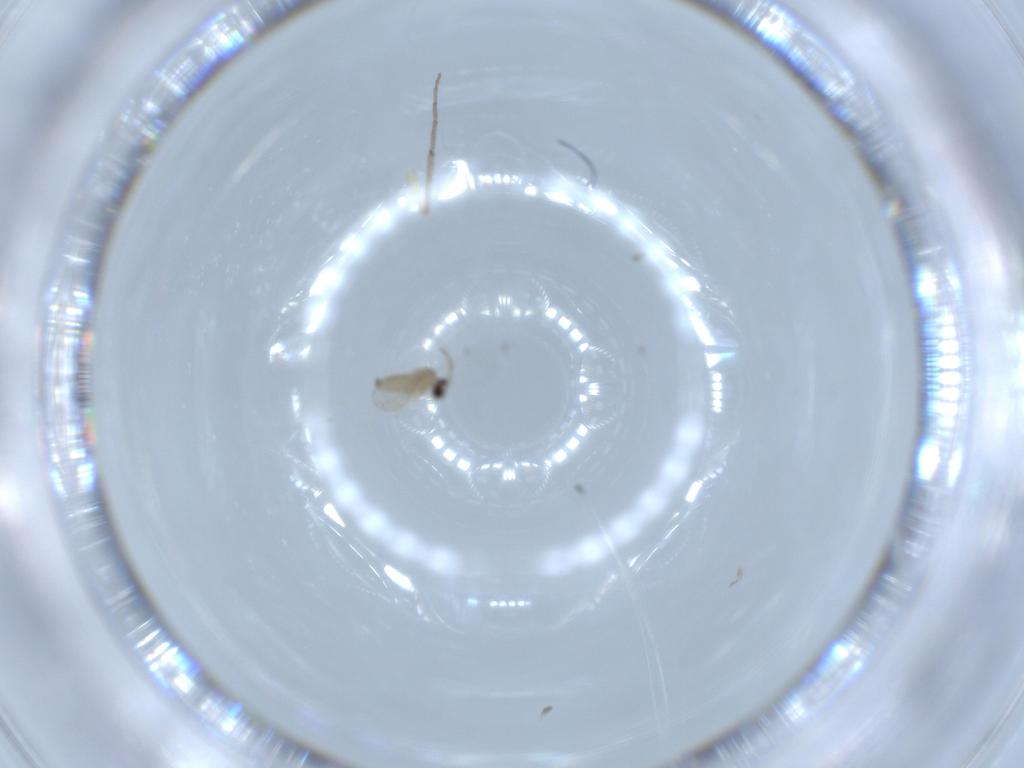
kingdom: Animalia
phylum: Arthropoda
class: Insecta
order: Diptera
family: Cecidomyiidae
